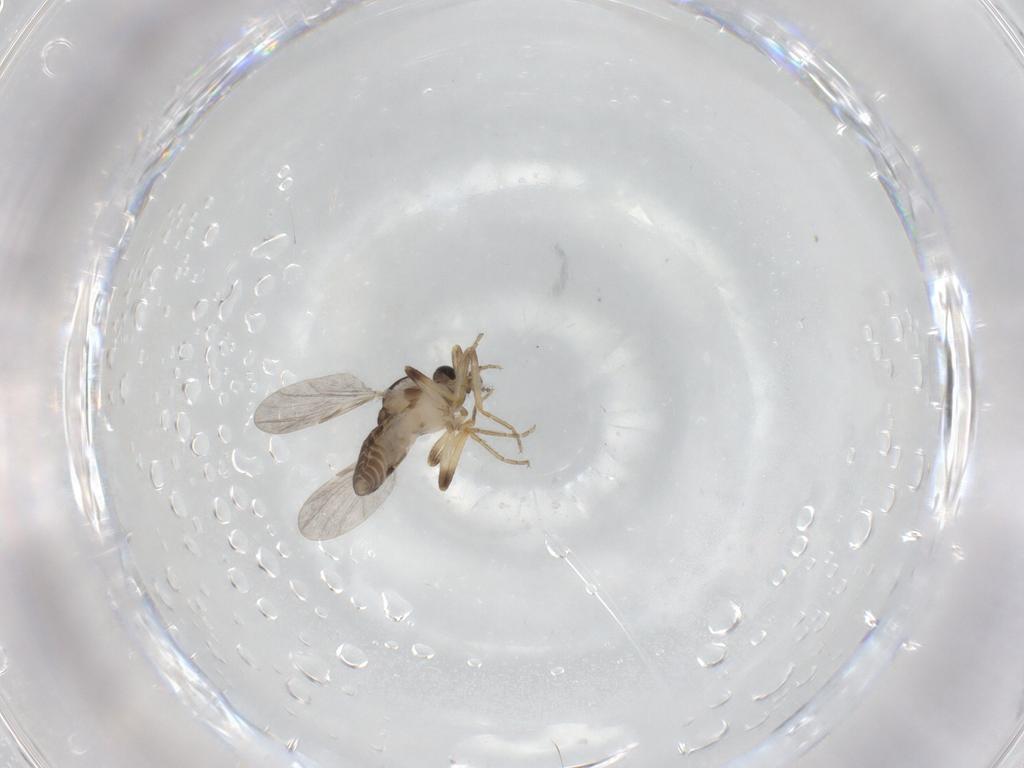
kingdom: Animalia
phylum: Arthropoda
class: Insecta
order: Diptera
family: Ceratopogonidae
